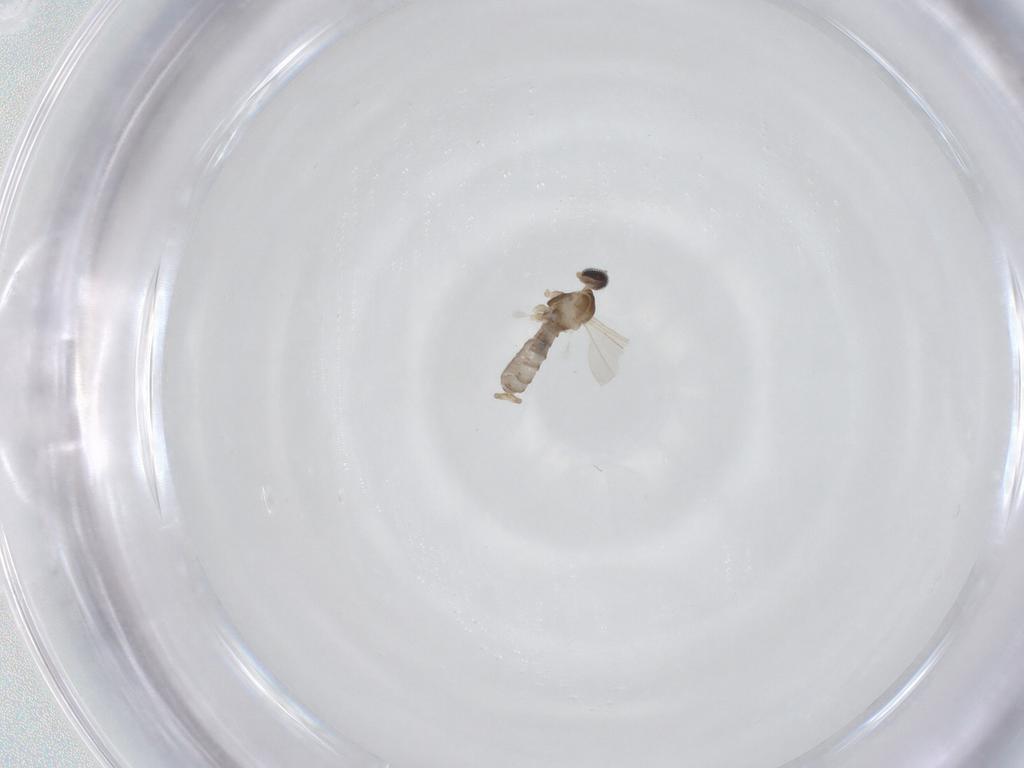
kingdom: Animalia
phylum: Arthropoda
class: Insecta
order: Diptera
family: Cecidomyiidae
